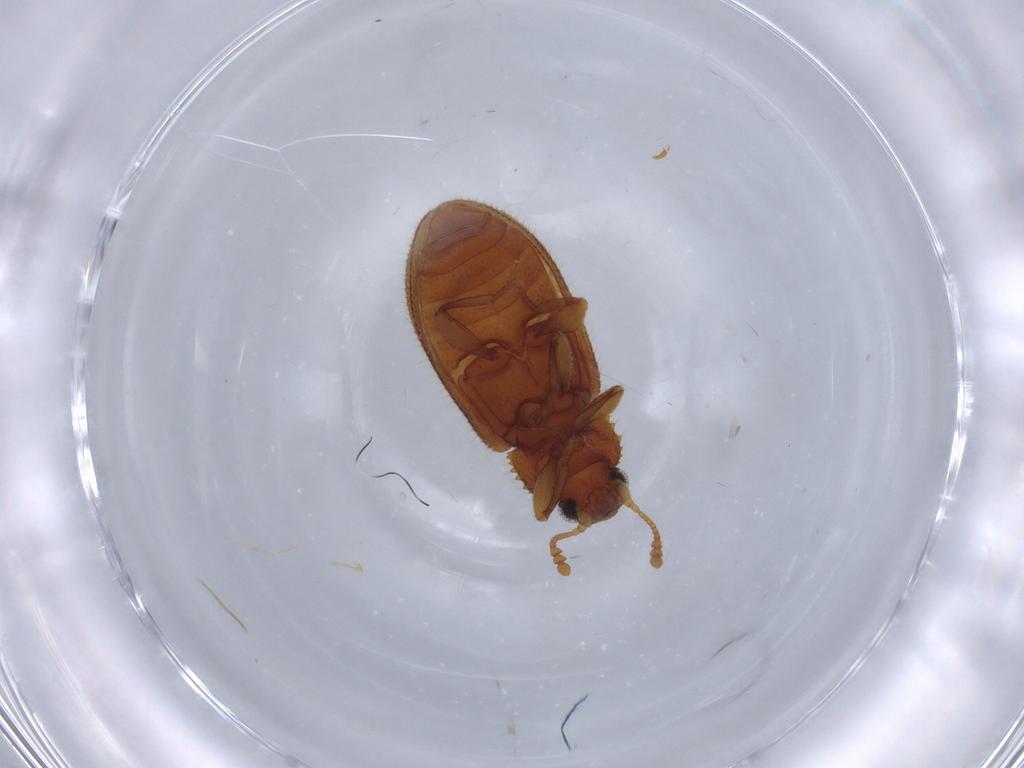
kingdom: Animalia
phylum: Arthropoda
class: Insecta
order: Coleoptera
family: Tenebrionidae
